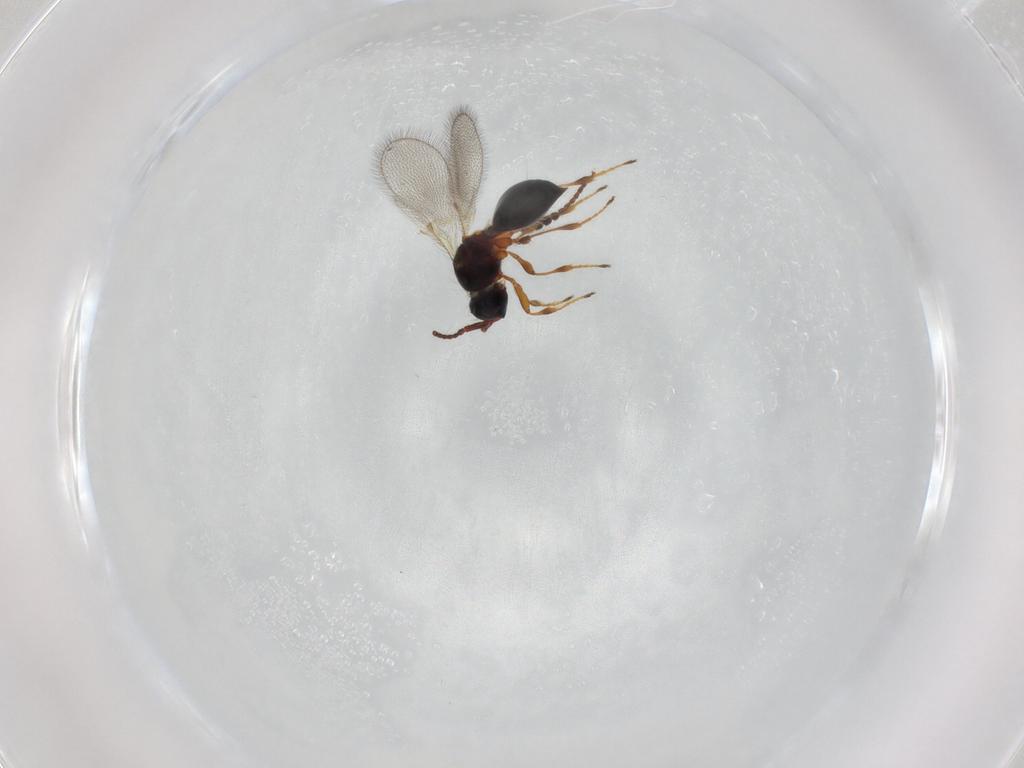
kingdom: Animalia
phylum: Arthropoda
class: Insecta
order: Hymenoptera
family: Diapriidae
